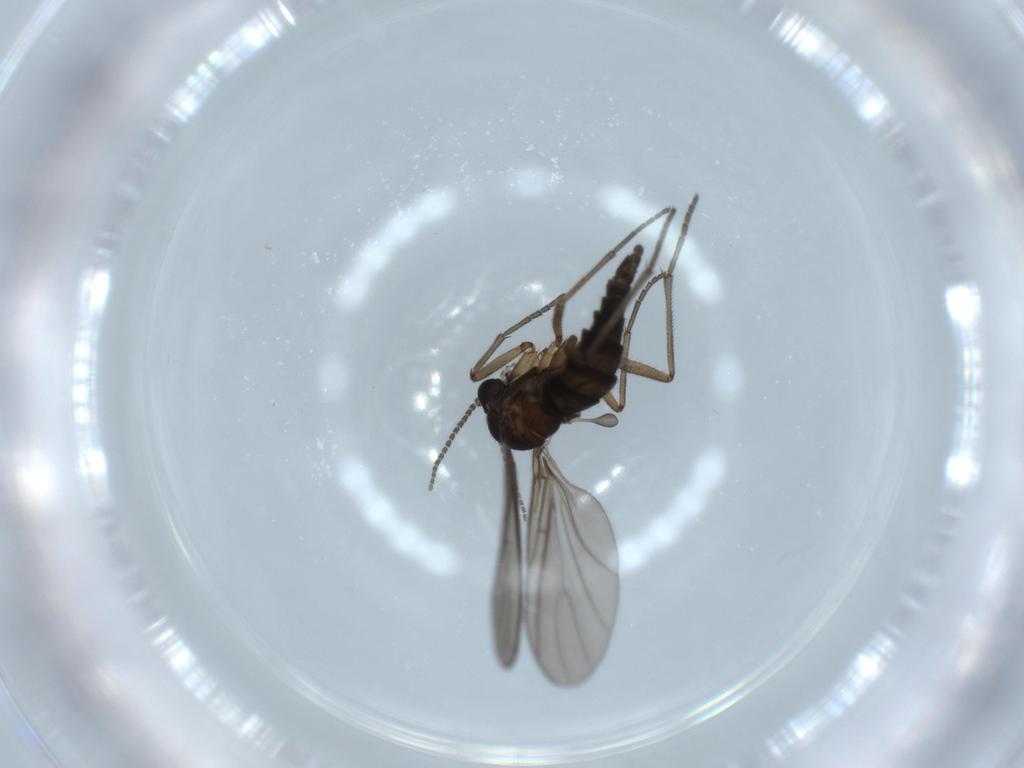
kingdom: Animalia
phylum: Arthropoda
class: Insecta
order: Diptera
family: Sciaridae
